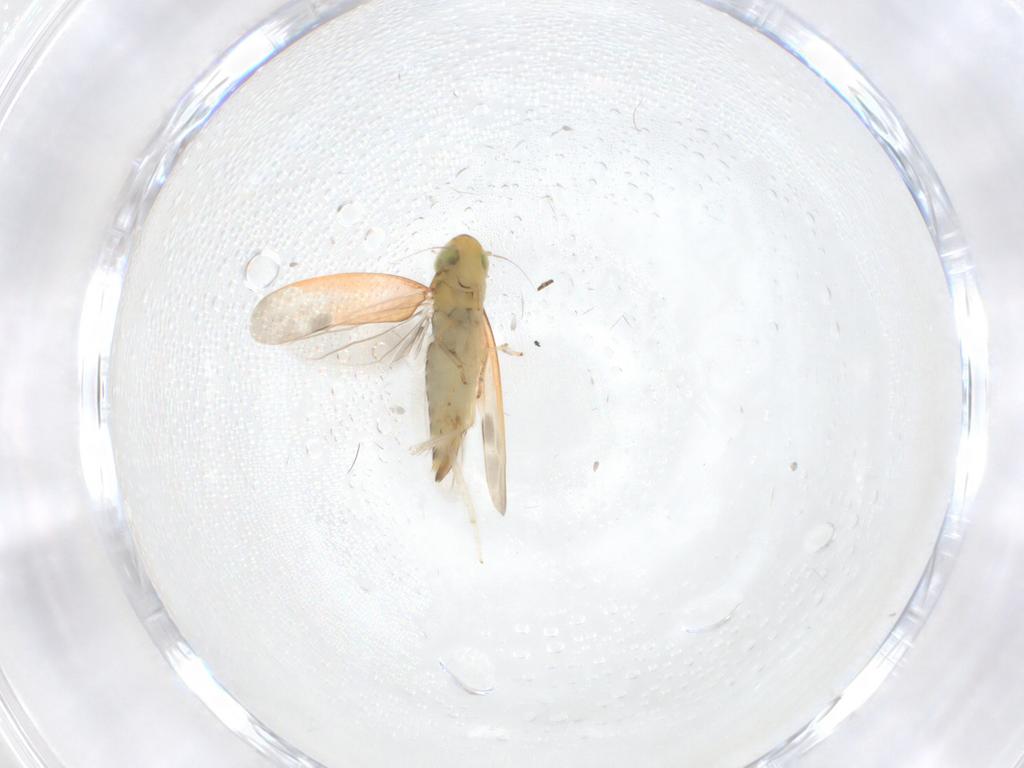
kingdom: Animalia
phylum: Arthropoda
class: Insecta
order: Hemiptera
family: Cicadellidae
